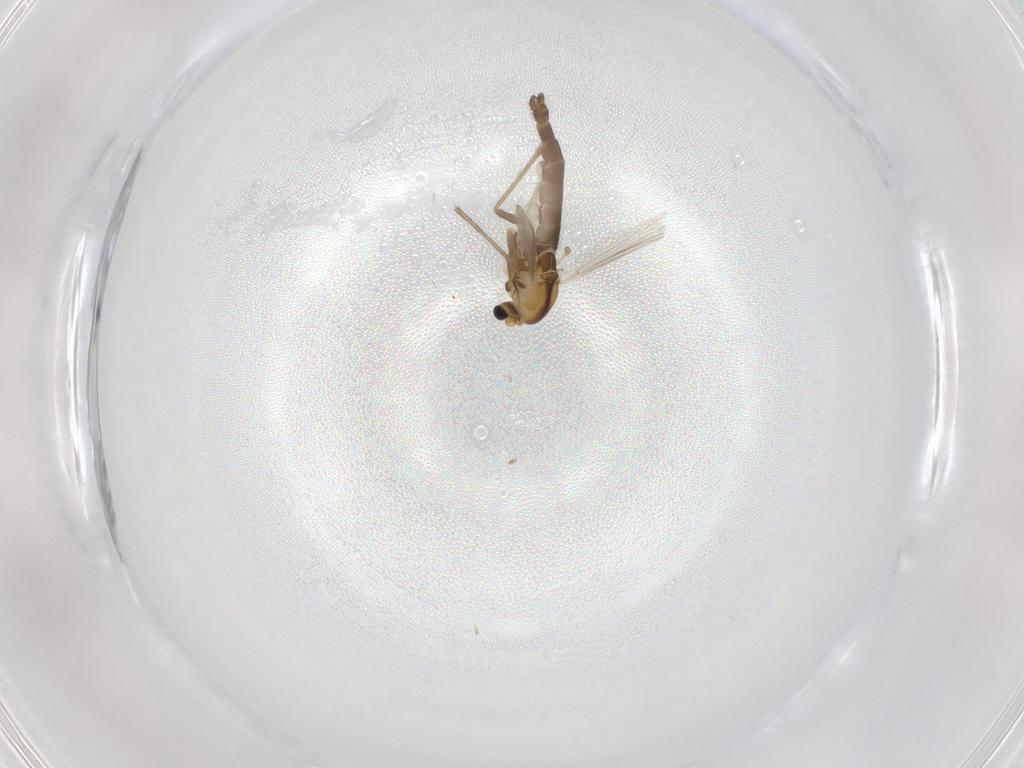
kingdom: Animalia
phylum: Arthropoda
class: Insecta
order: Diptera
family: Chironomidae
